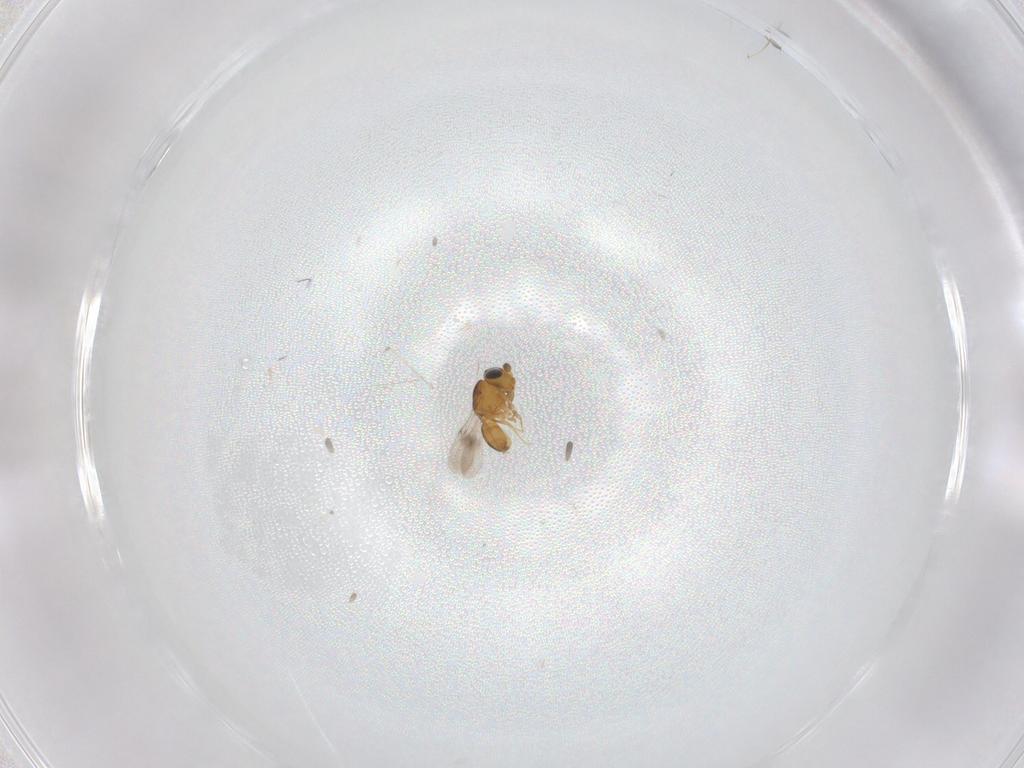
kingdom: Animalia
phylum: Arthropoda
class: Insecta
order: Hymenoptera
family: Scelionidae
